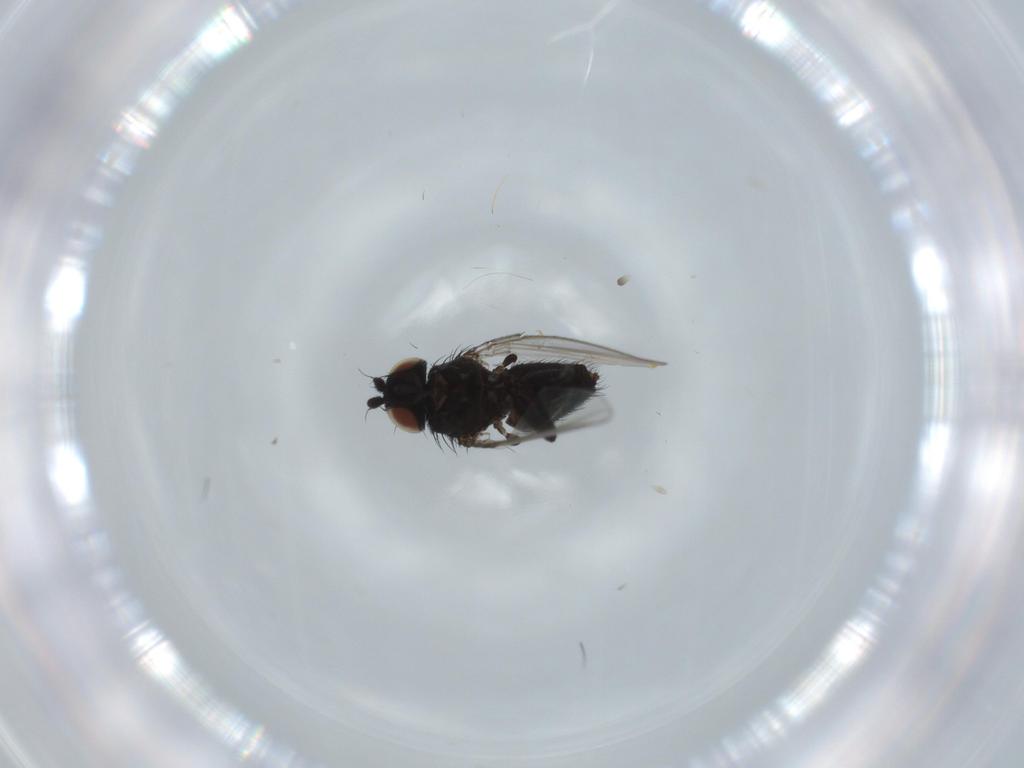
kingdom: Animalia
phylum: Arthropoda
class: Insecta
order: Diptera
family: Milichiidae
